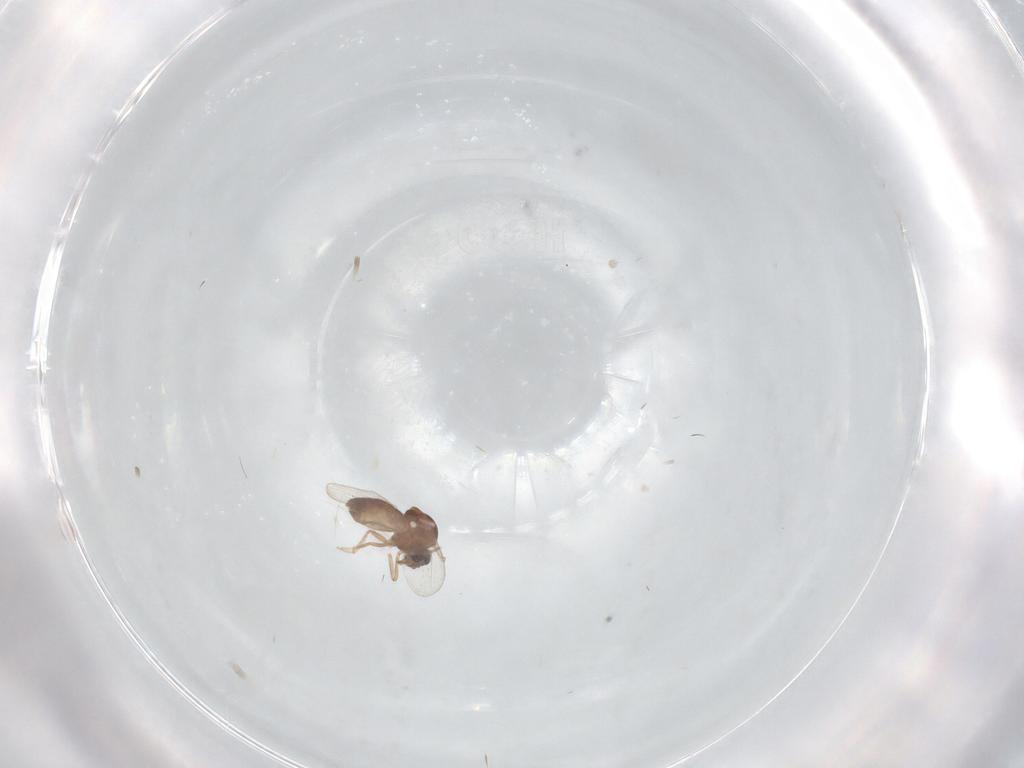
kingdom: Animalia
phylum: Arthropoda
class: Insecta
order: Diptera
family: Ceratopogonidae
